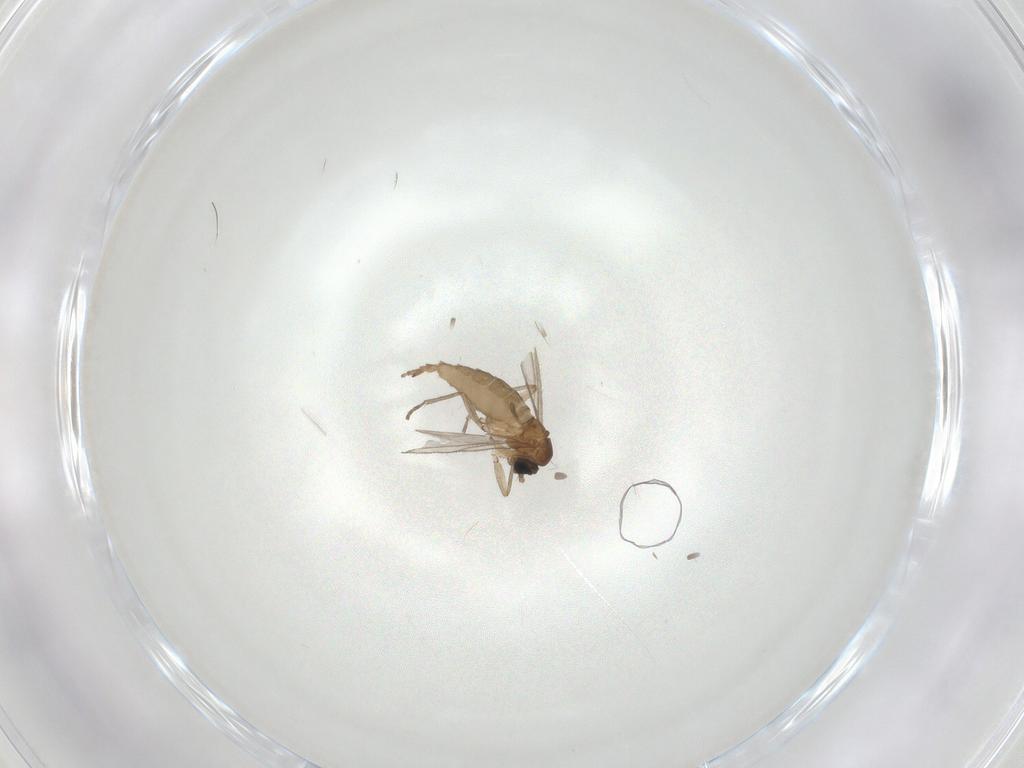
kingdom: Animalia
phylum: Arthropoda
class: Insecta
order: Diptera
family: Sciaridae
